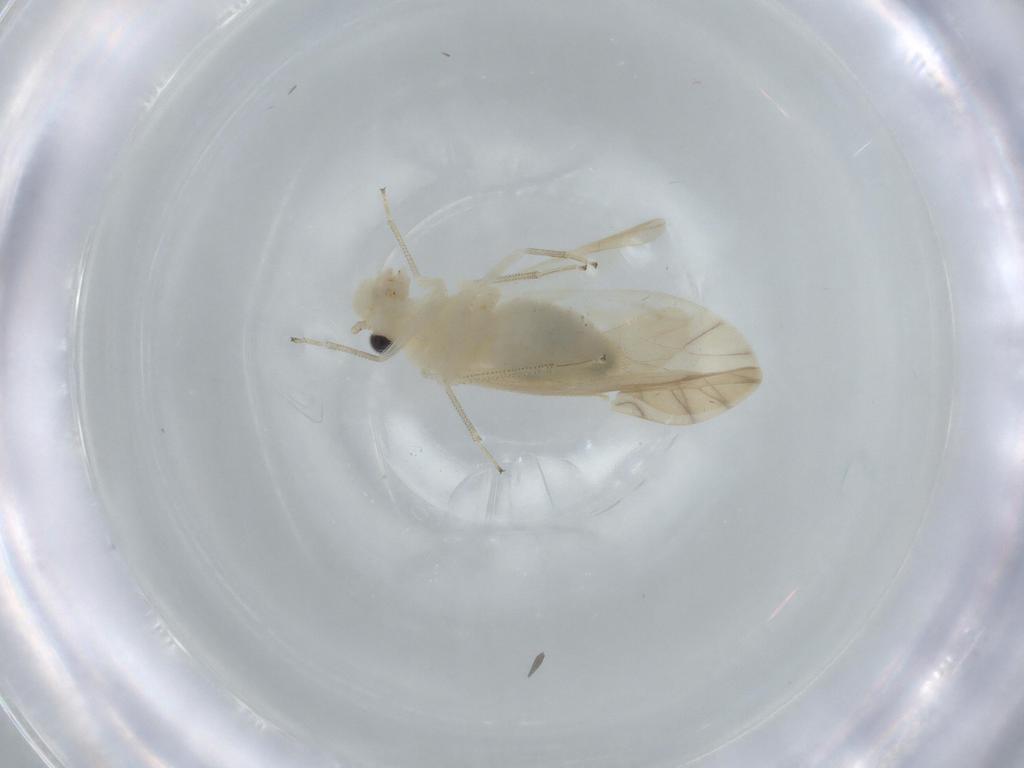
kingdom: Animalia
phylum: Arthropoda
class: Insecta
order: Psocodea
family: Caeciliusidae
